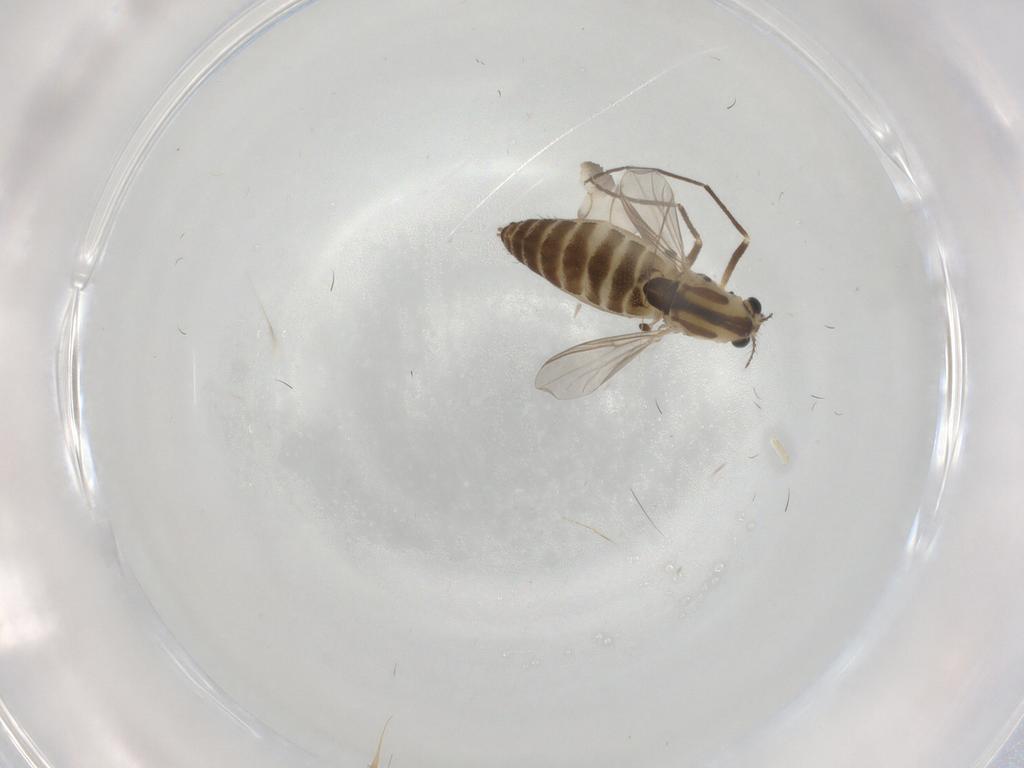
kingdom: Animalia
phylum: Arthropoda
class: Insecta
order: Diptera
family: Chironomidae
